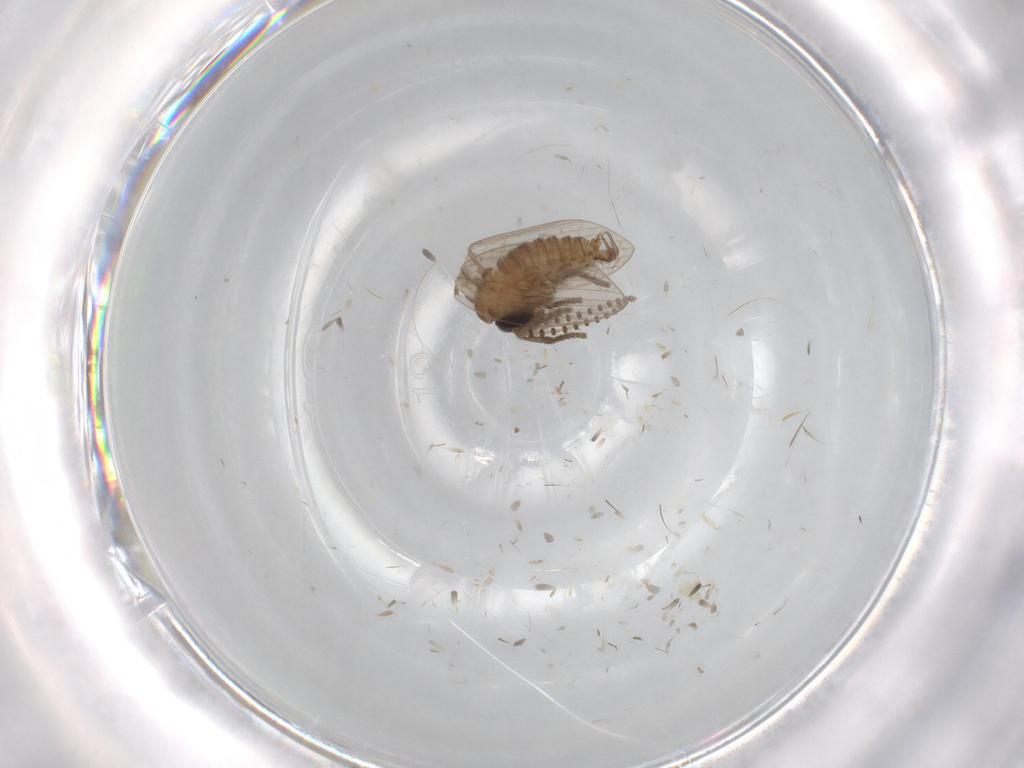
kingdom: Animalia
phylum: Arthropoda
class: Insecta
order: Diptera
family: Psychodidae
